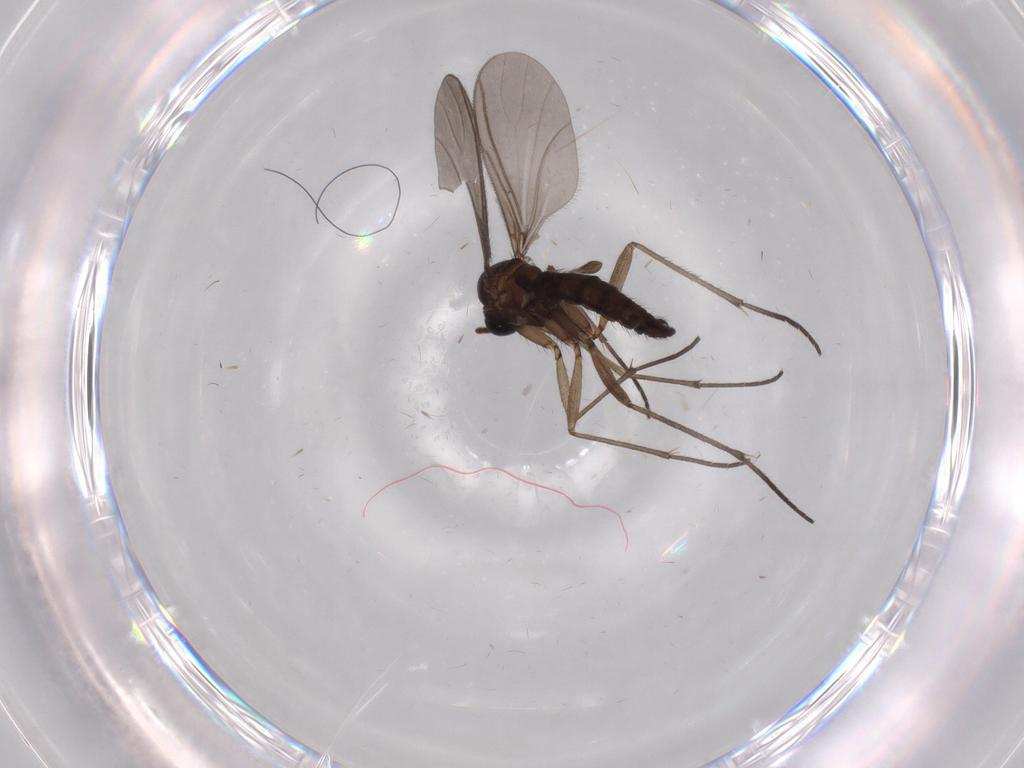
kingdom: Animalia
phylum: Arthropoda
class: Insecta
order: Diptera
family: Sciaridae
